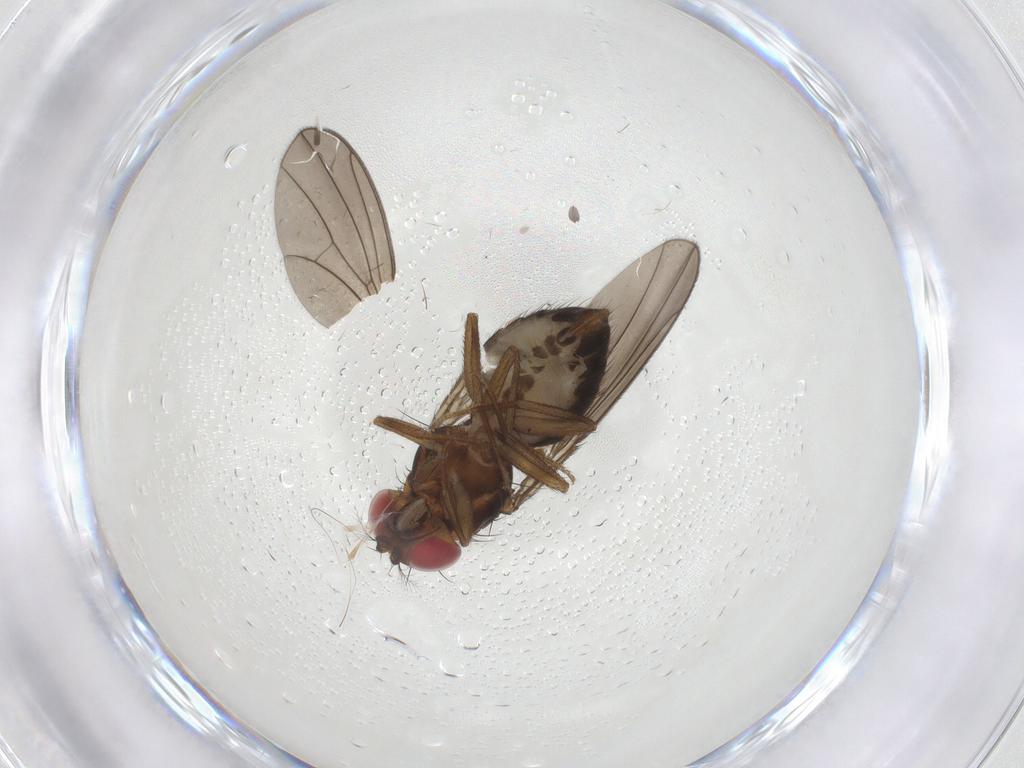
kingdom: Animalia
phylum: Arthropoda
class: Insecta
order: Diptera
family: Drosophilidae
